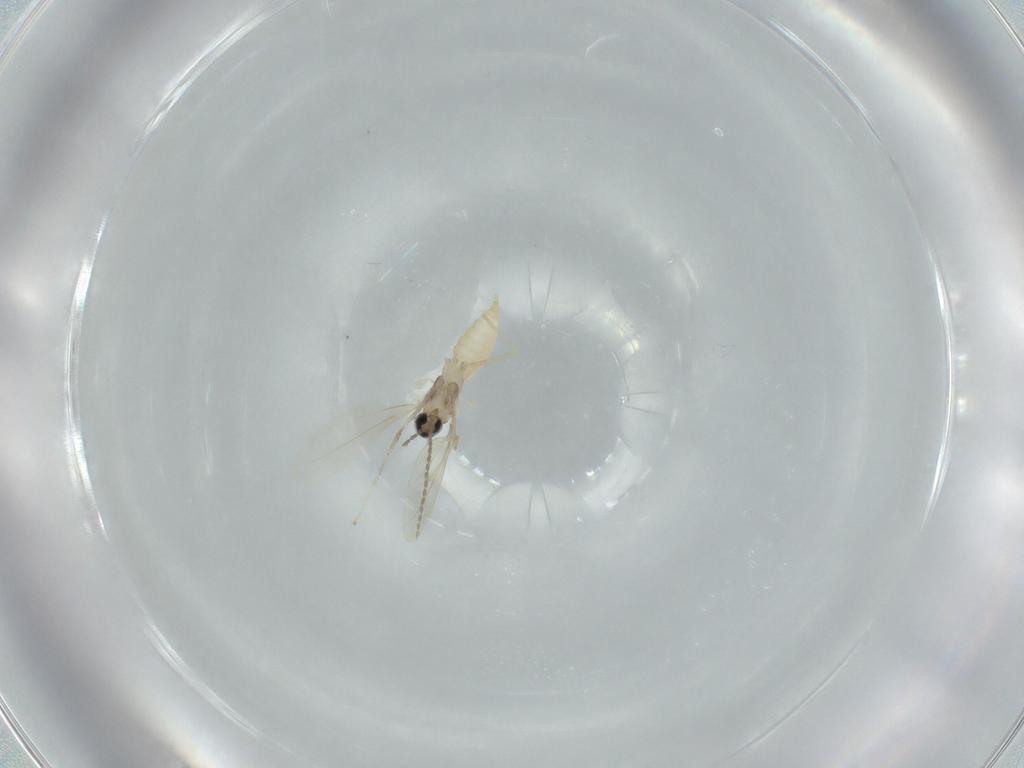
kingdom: Animalia
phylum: Arthropoda
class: Insecta
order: Diptera
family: Cecidomyiidae
